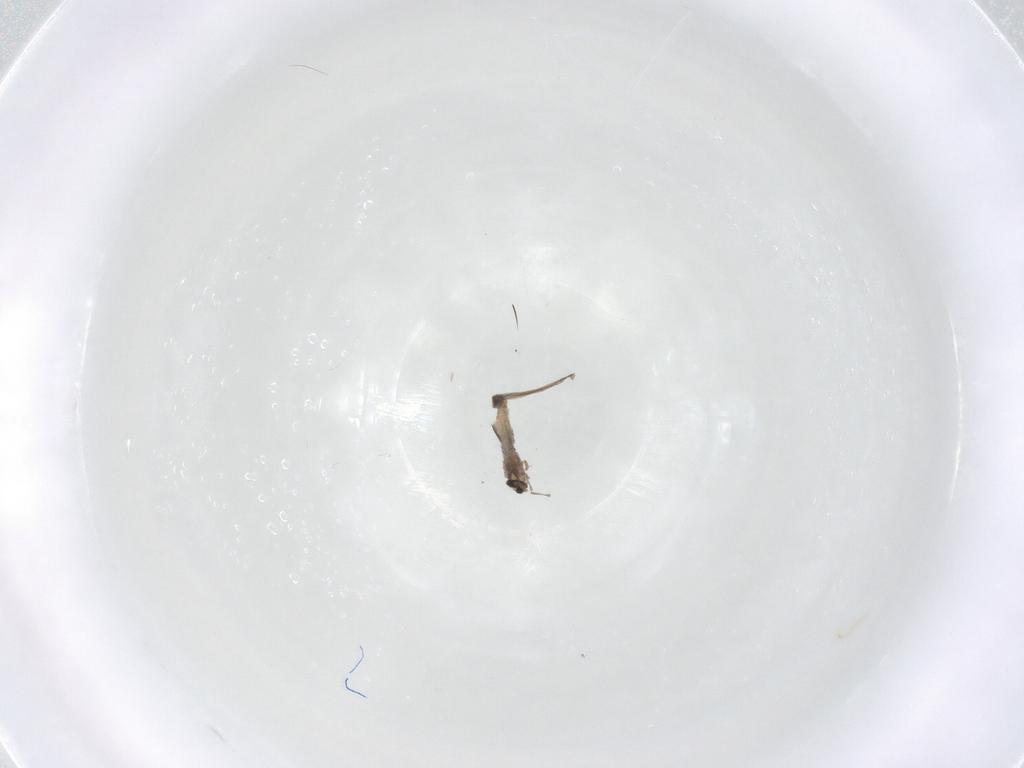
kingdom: Animalia
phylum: Arthropoda
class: Insecta
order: Diptera
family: Cecidomyiidae
